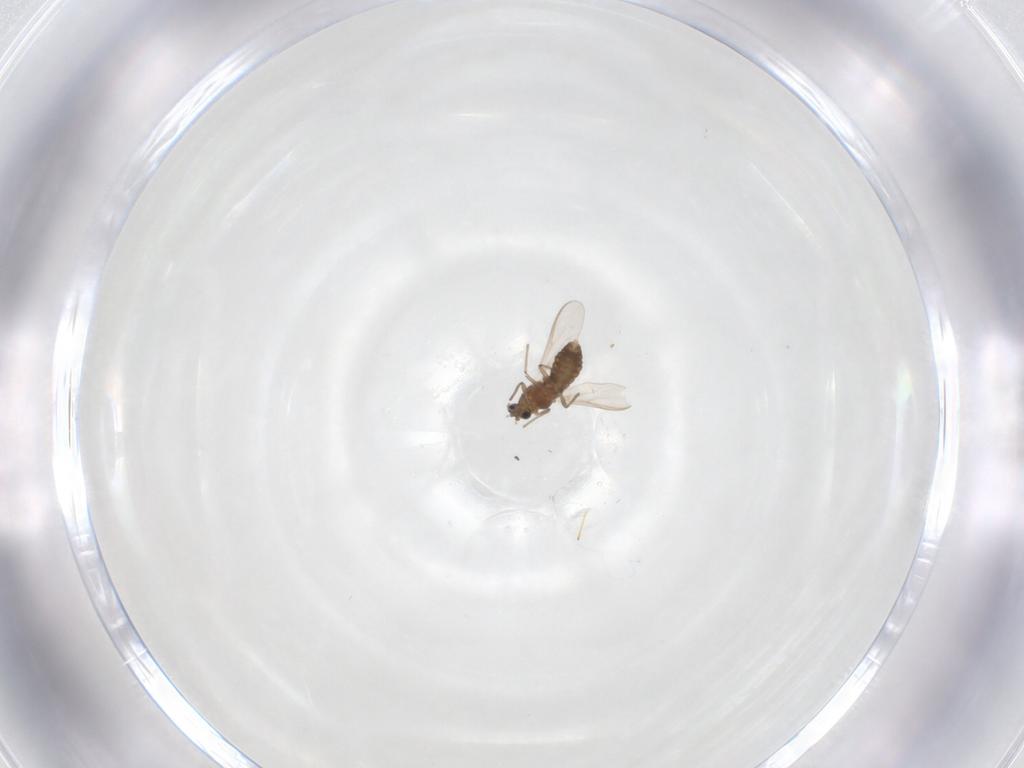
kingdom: Animalia
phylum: Arthropoda
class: Insecta
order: Diptera
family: Chironomidae
